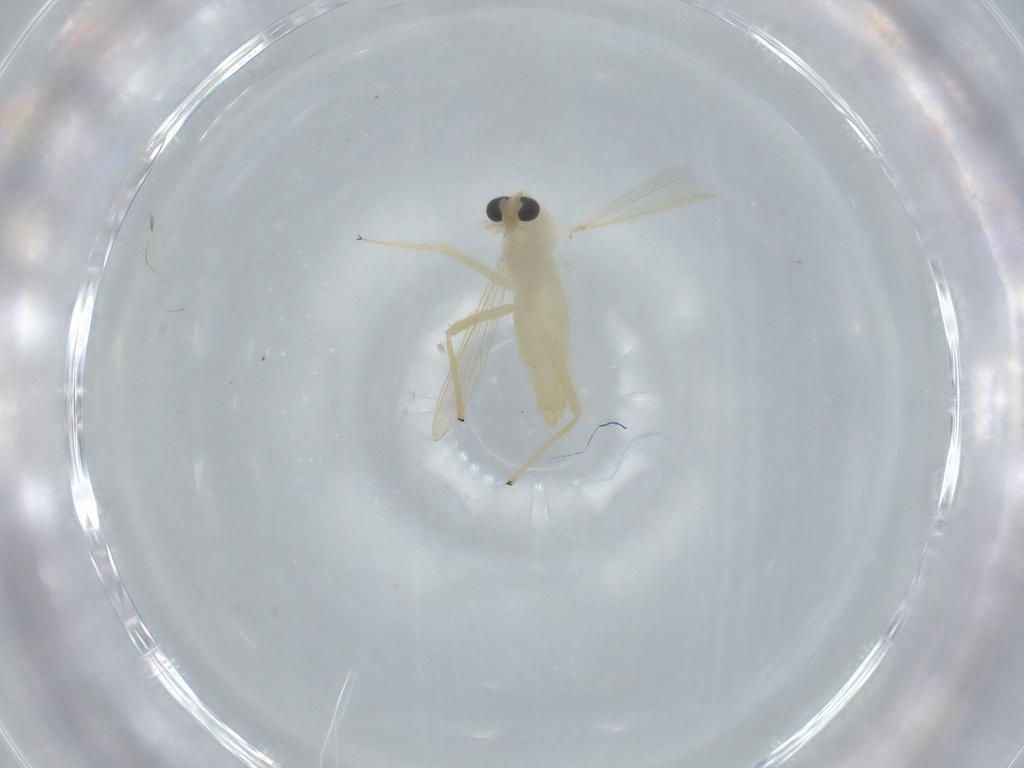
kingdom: Animalia
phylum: Arthropoda
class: Insecta
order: Diptera
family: Chironomidae
